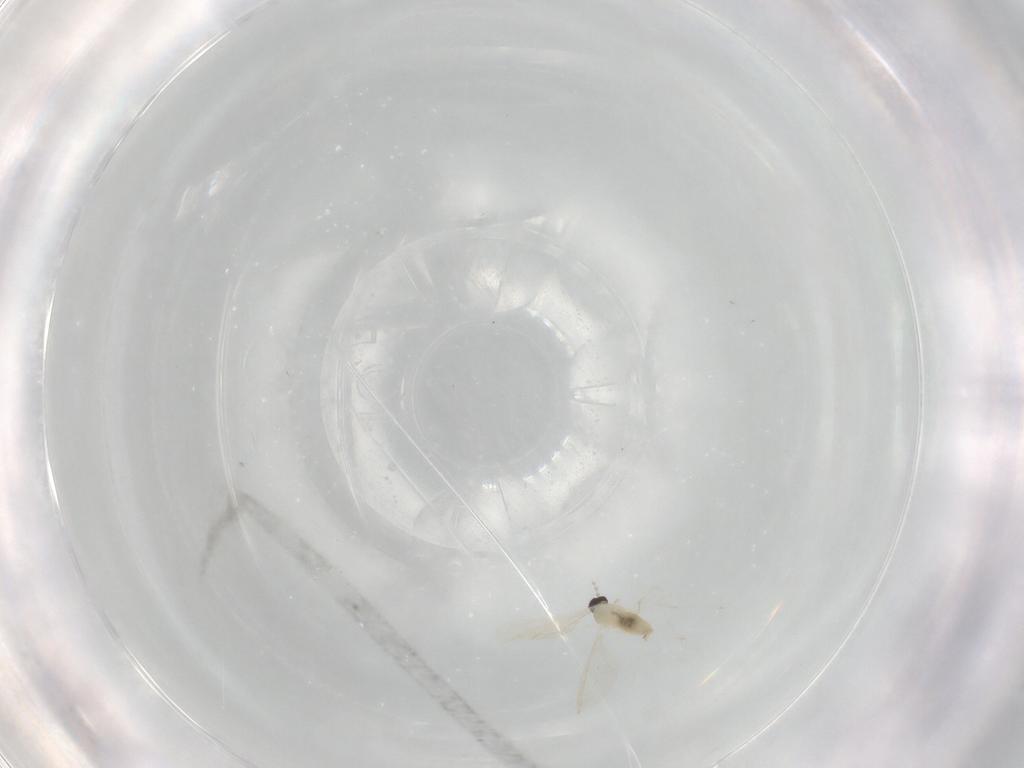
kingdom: Animalia
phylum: Arthropoda
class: Insecta
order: Diptera
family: Cecidomyiidae
